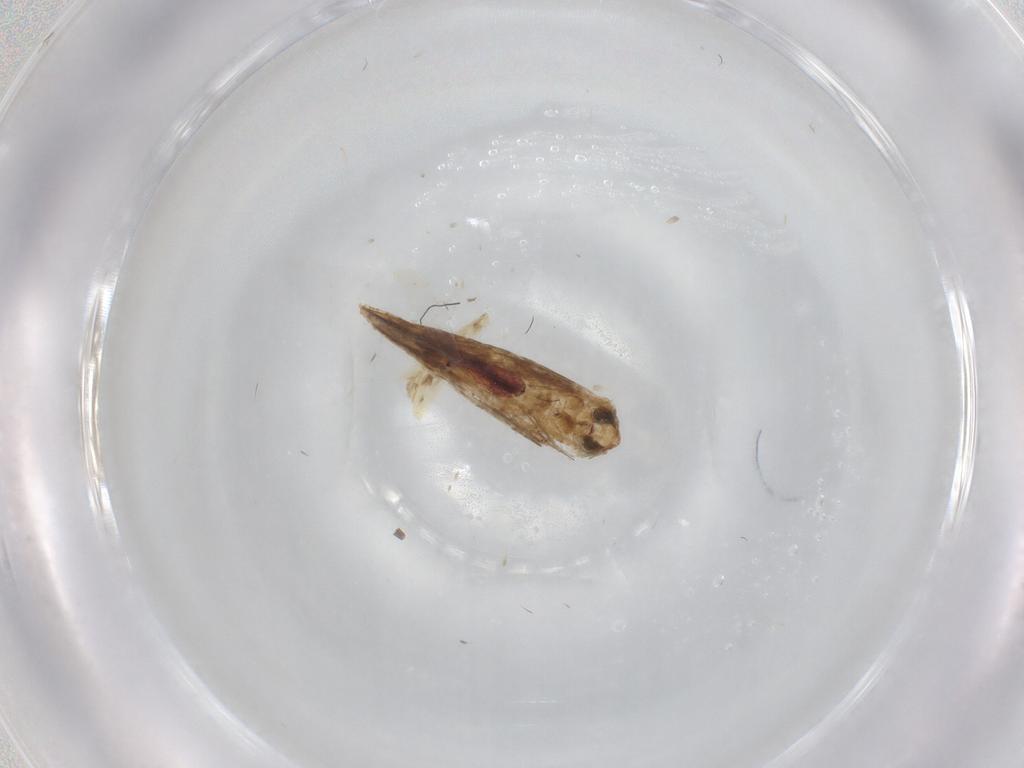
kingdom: Animalia
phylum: Arthropoda
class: Insecta
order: Diptera
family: Muscidae
